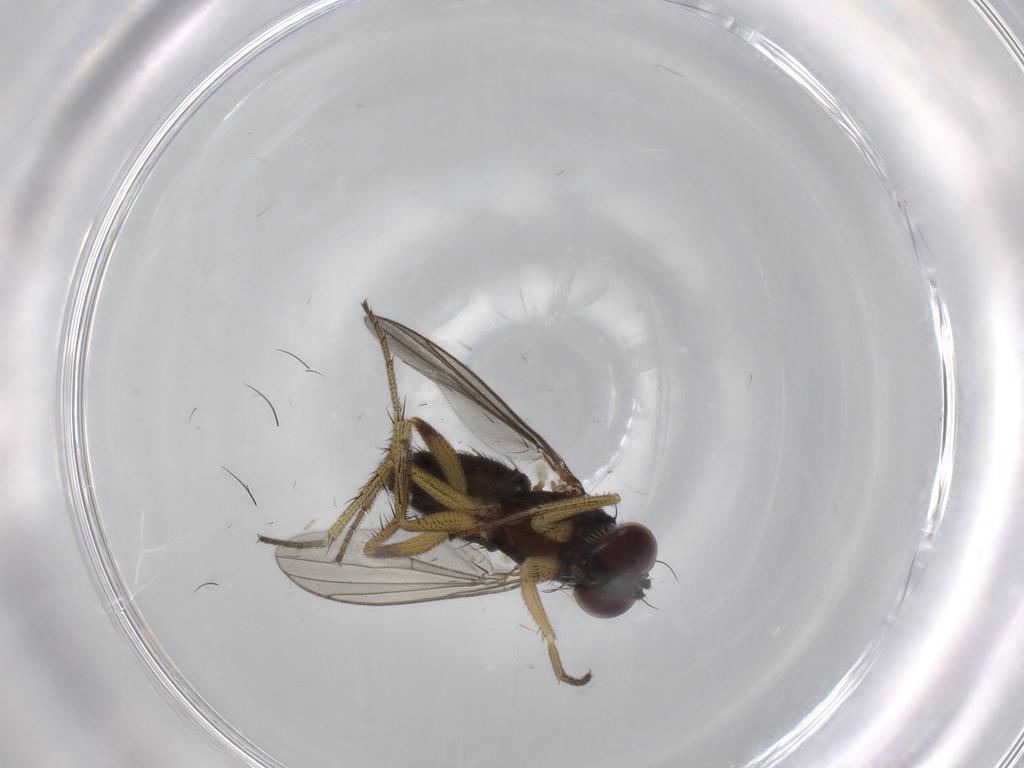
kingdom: Animalia
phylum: Arthropoda
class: Insecta
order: Diptera
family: Dolichopodidae
